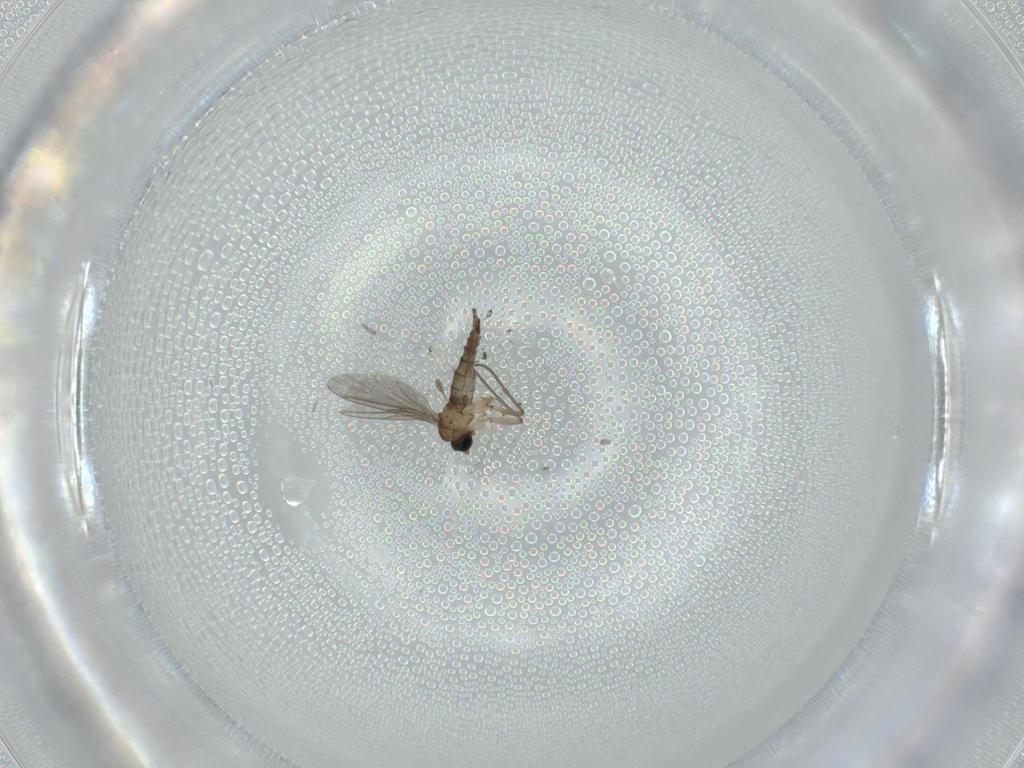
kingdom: Animalia
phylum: Arthropoda
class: Insecta
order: Diptera
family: Sciaridae
